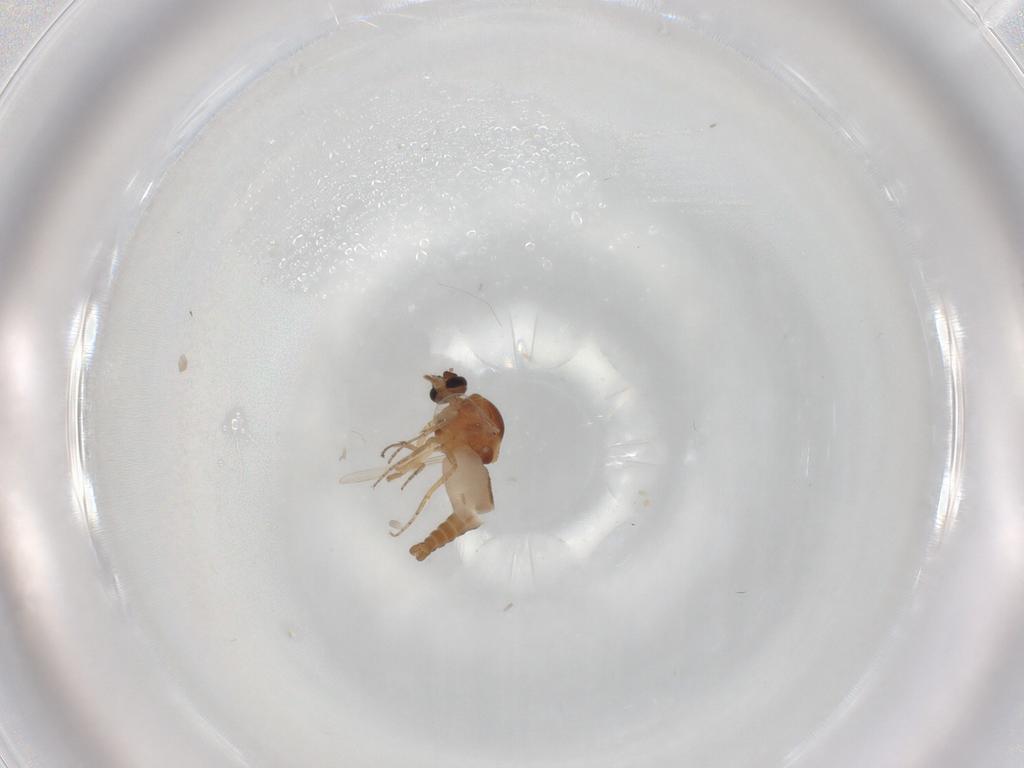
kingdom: Animalia
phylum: Arthropoda
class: Insecta
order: Diptera
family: Ceratopogonidae
